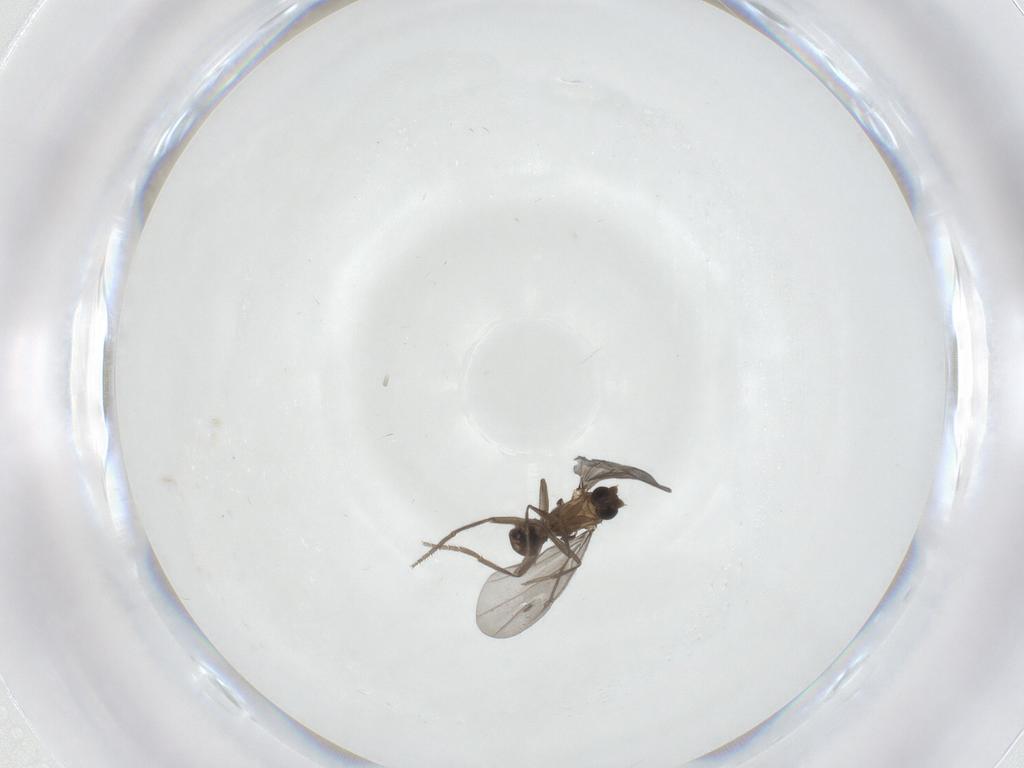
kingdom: Animalia
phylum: Arthropoda
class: Insecta
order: Diptera
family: Phoridae
